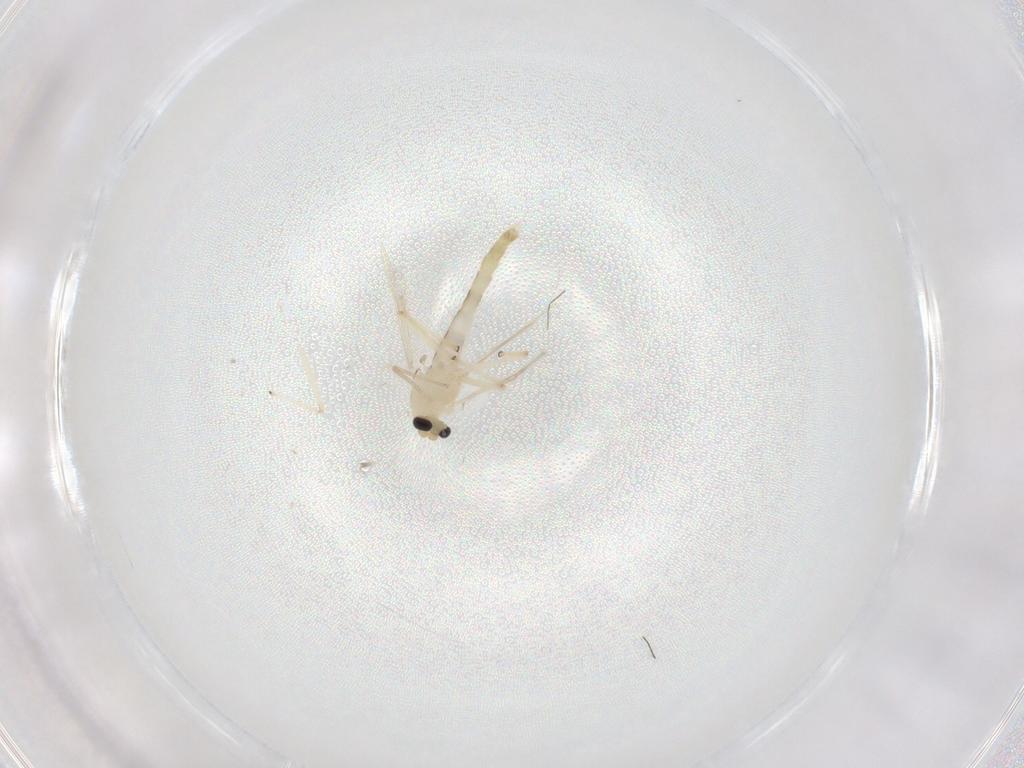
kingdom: Animalia
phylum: Arthropoda
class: Insecta
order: Diptera
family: Chironomidae
